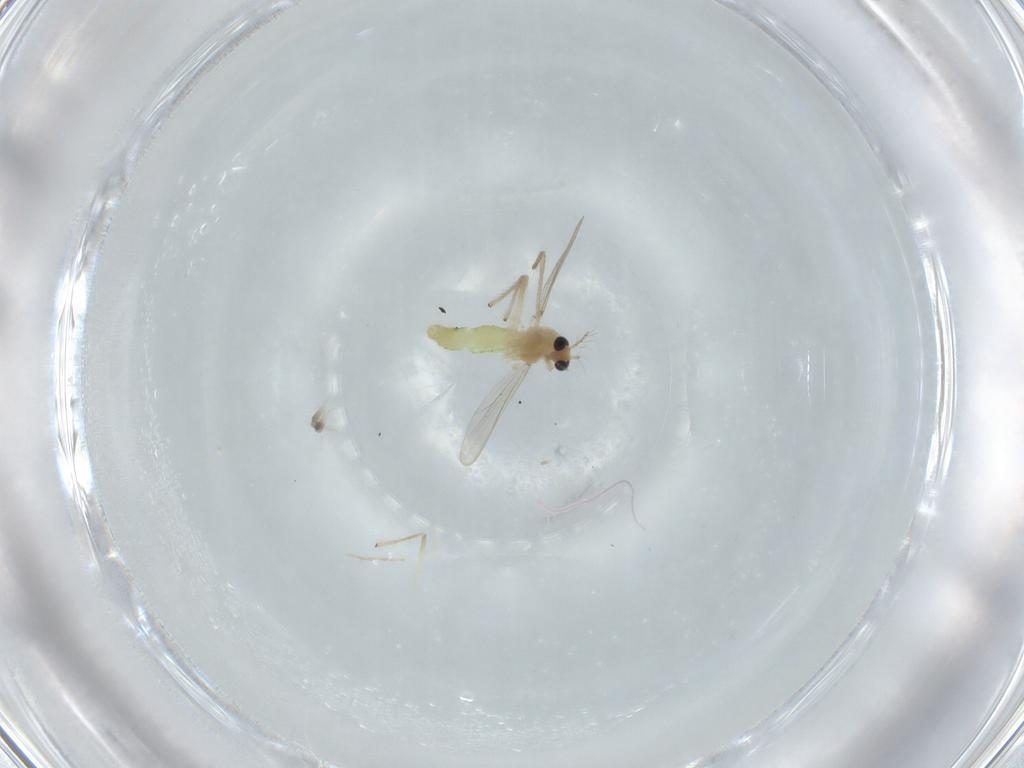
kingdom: Animalia
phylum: Arthropoda
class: Insecta
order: Diptera
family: Chironomidae
